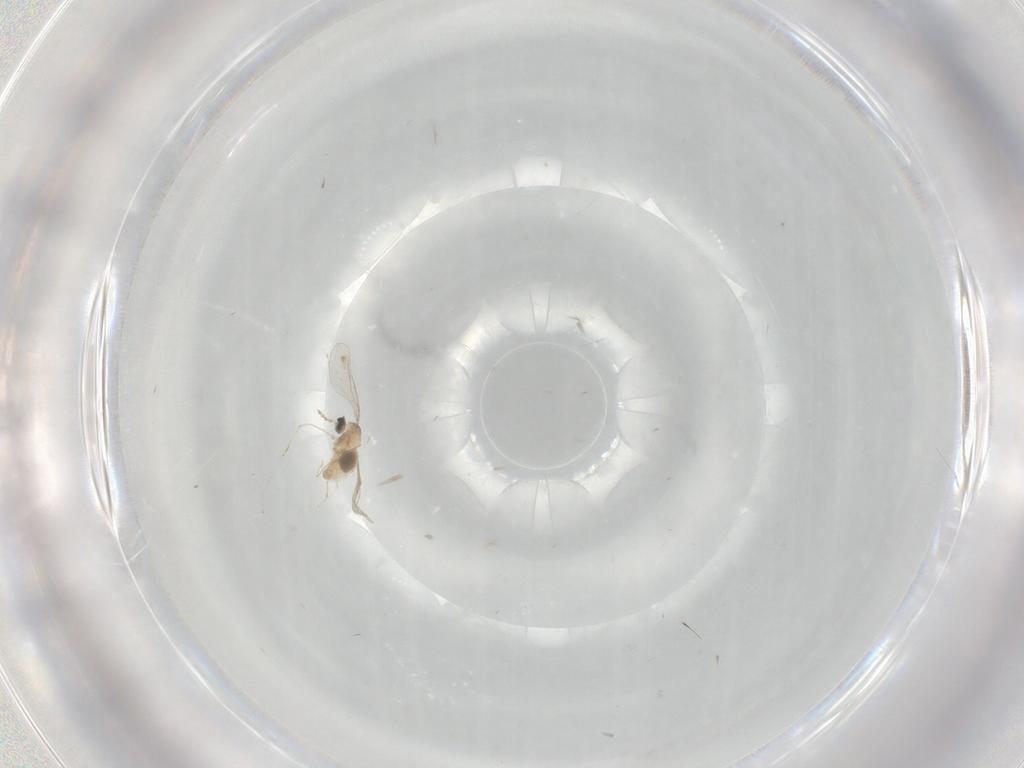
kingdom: Animalia
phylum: Arthropoda
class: Insecta
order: Diptera
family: Cecidomyiidae
